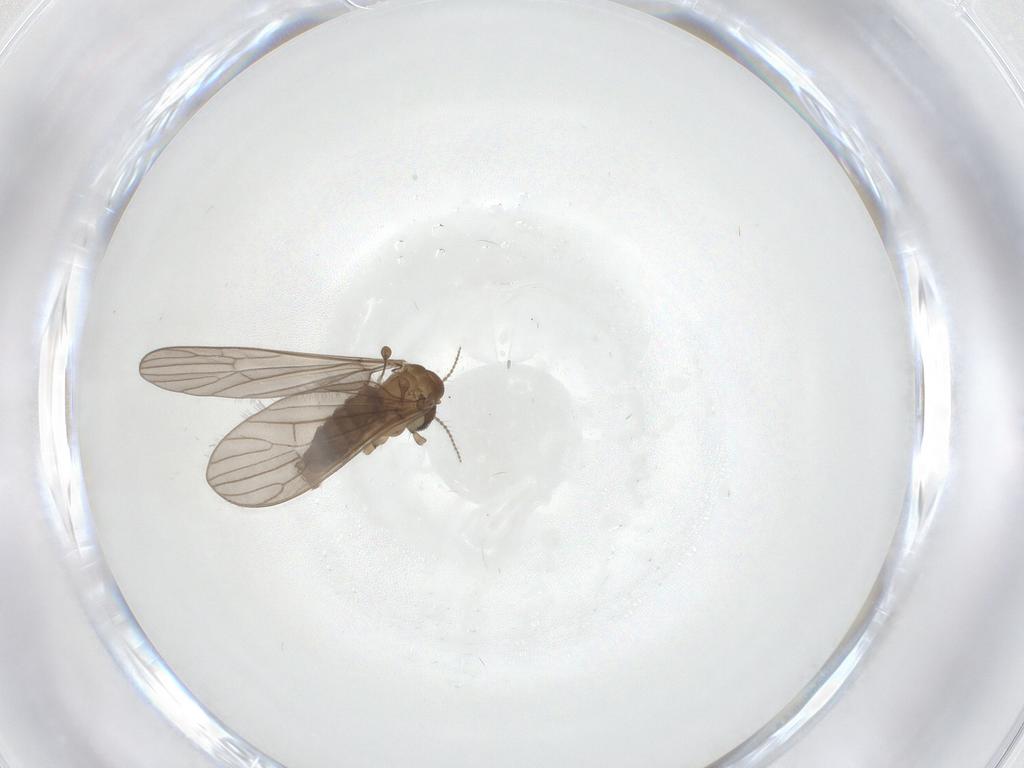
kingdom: Animalia
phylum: Arthropoda
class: Insecta
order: Diptera
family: Dolichopodidae
